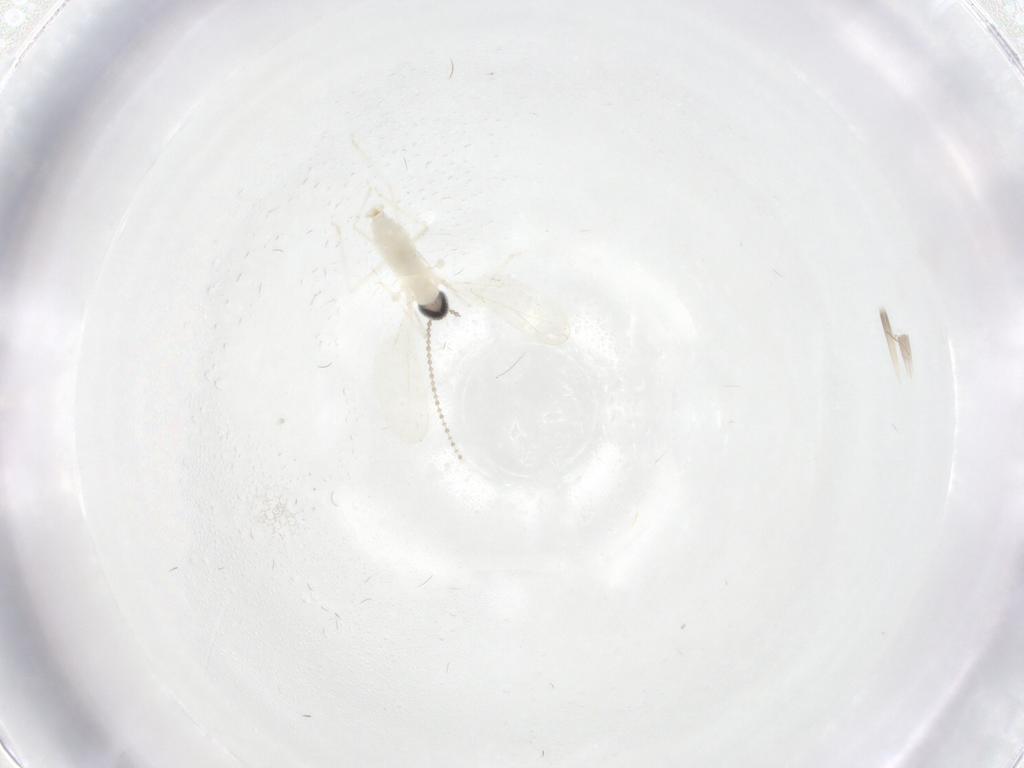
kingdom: Animalia
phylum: Arthropoda
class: Insecta
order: Diptera
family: Cecidomyiidae
